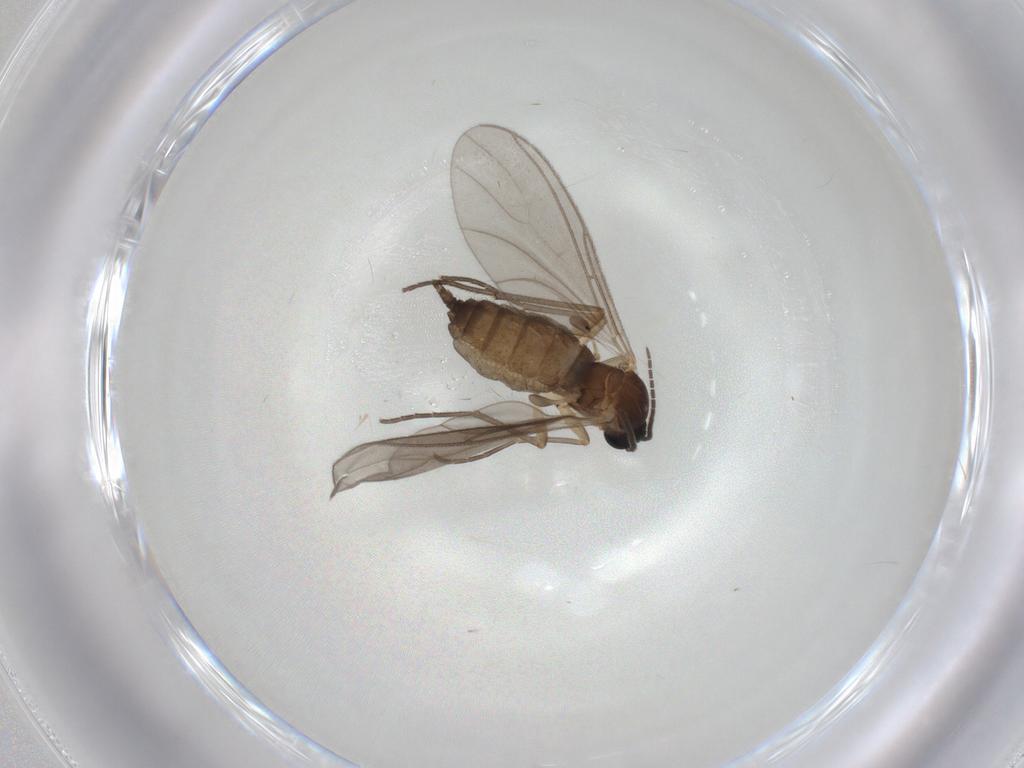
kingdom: Animalia
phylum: Arthropoda
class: Insecta
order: Diptera
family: Sciaridae
